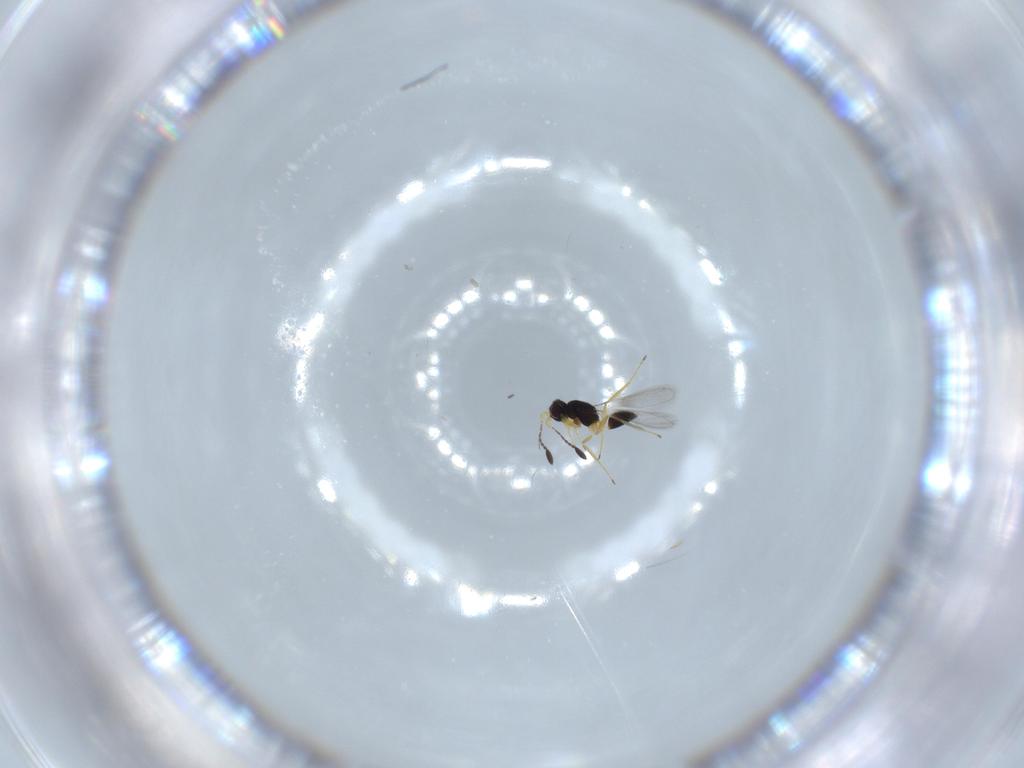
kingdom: Animalia
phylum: Arthropoda
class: Insecta
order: Hymenoptera
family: Mymaridae
